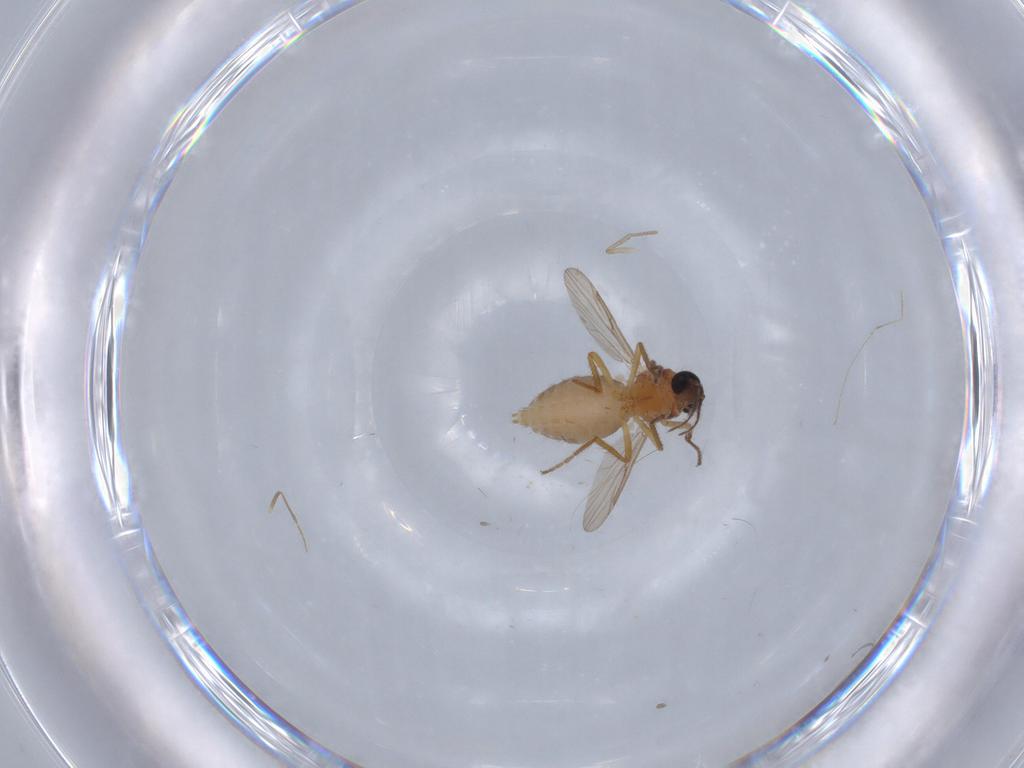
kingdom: Animalia
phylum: Arthropoda
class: Insecta
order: Diptera
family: Ceratopogonidae
